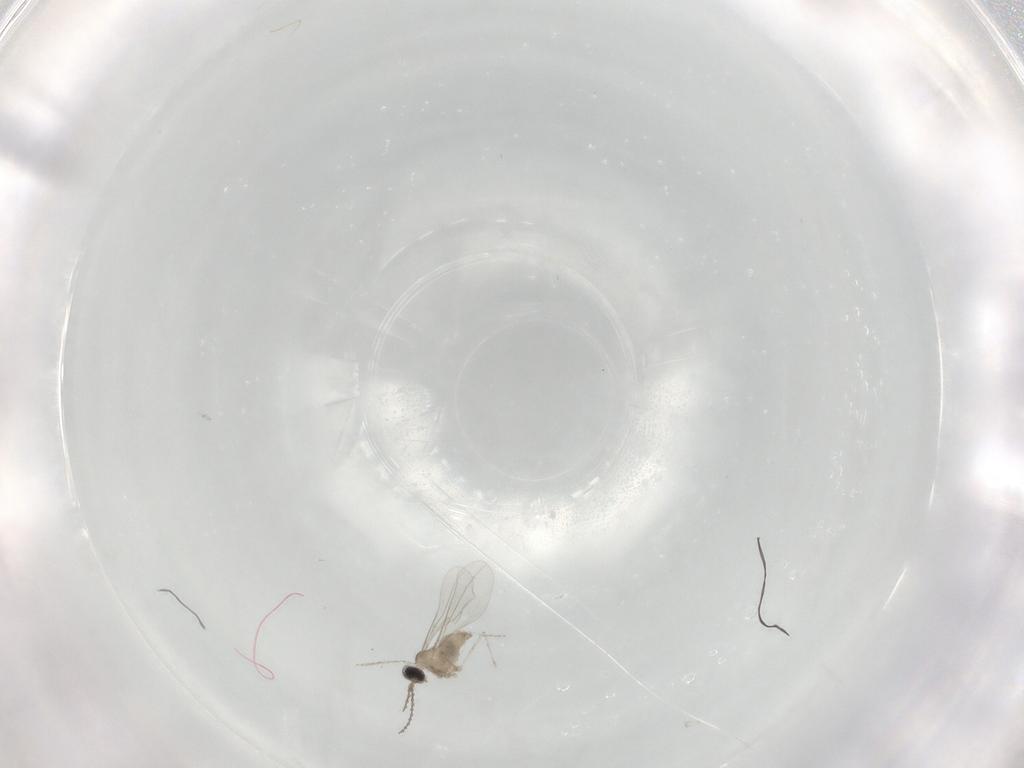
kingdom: Animalia
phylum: Arthropoda
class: Insecta
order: Diptera
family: Cecidomyiidae
